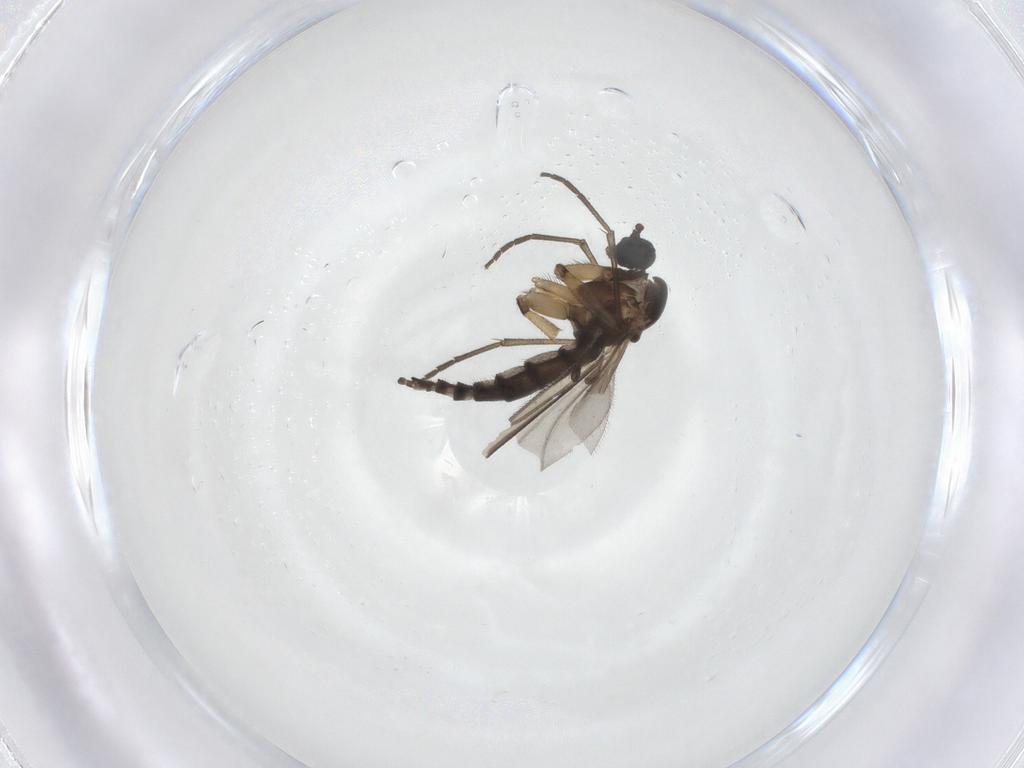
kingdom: Animalia
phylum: Arthropoda
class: Insecta
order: Diptera
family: Sciaridae
